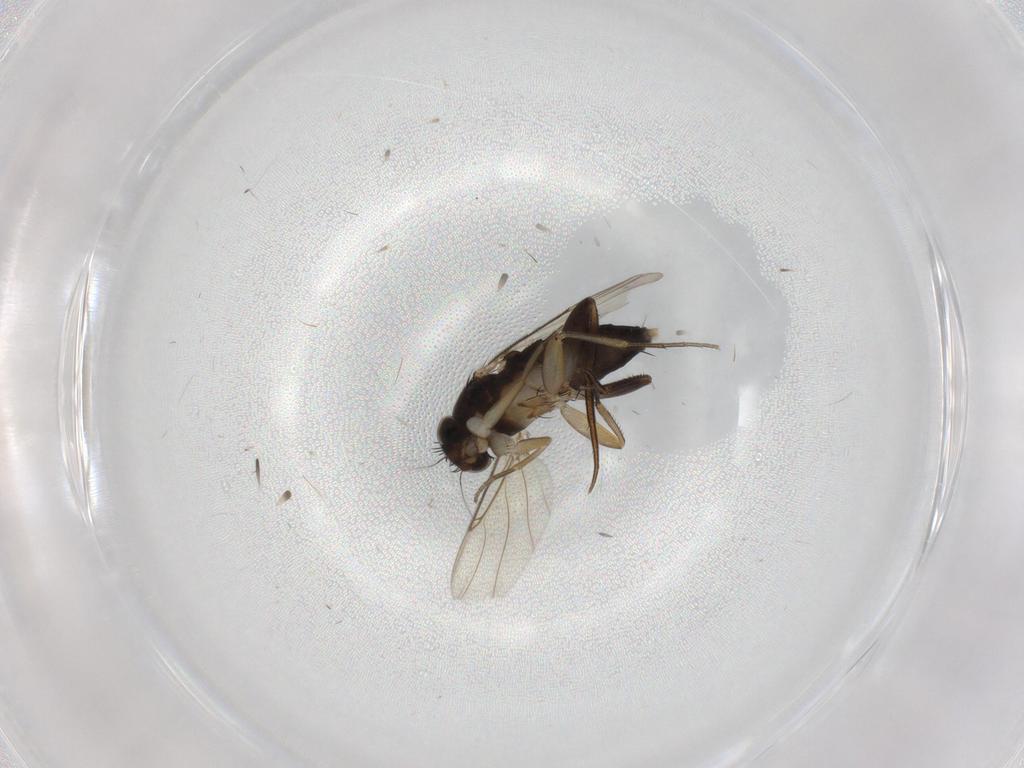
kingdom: Animalia
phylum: Arthropoda
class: Insecta
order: Diptera
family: Phoridae
